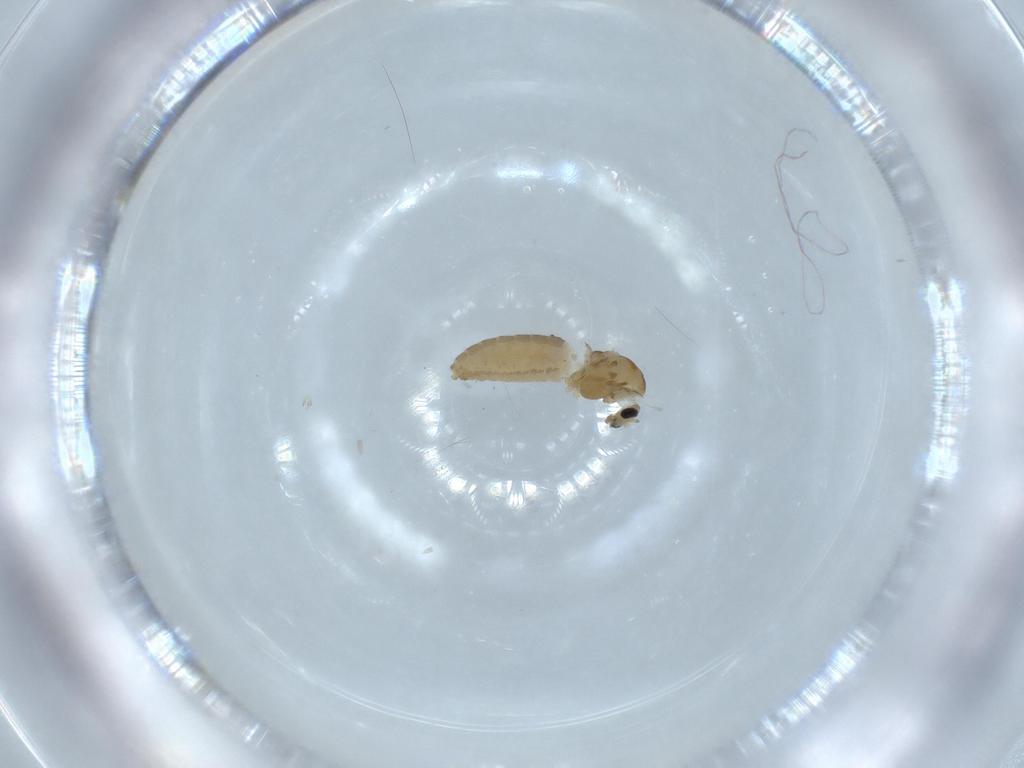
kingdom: Animalia
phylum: Arthropoda
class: Insecta
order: Diptera
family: Chironomidae
